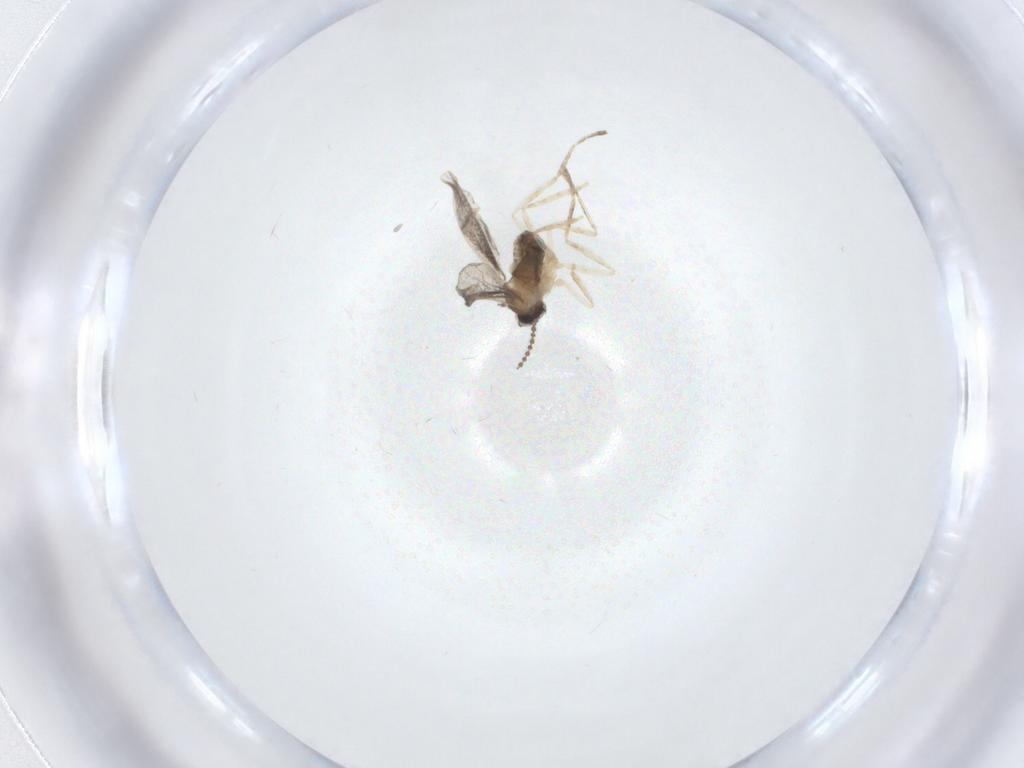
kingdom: Animalia
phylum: Arthropoda
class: Insecta
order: Diptera
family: Cecidomyiidae
